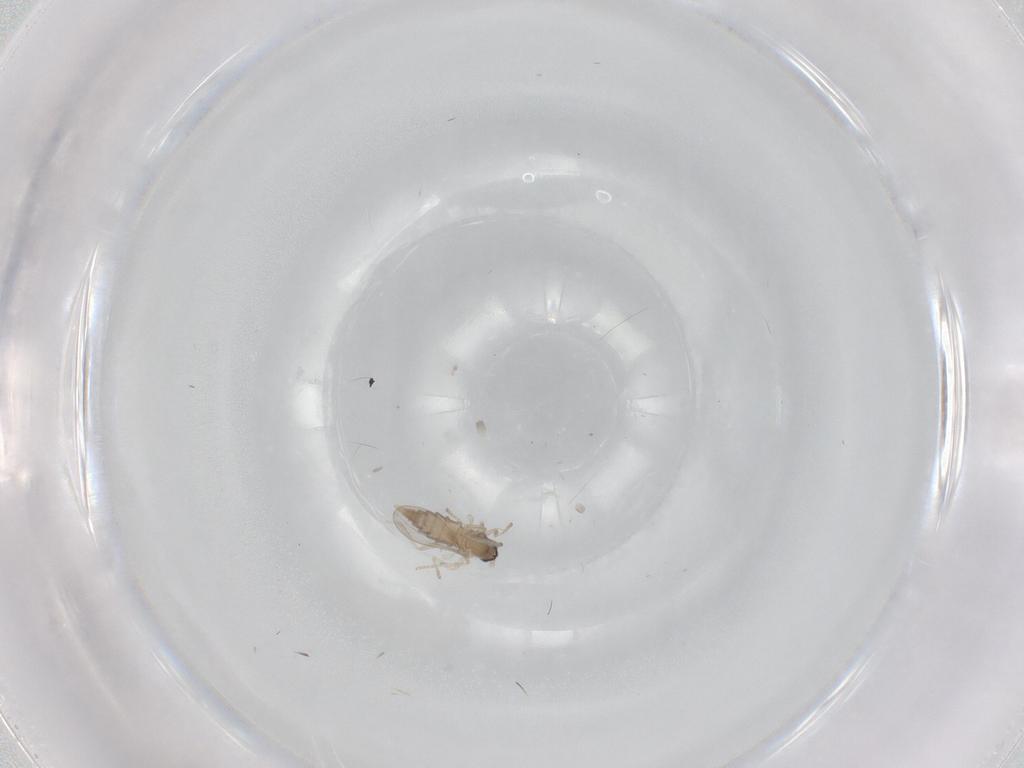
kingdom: Animalia
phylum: Arthropoda
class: Insecta
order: Diptera
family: Cecidomyiidae
